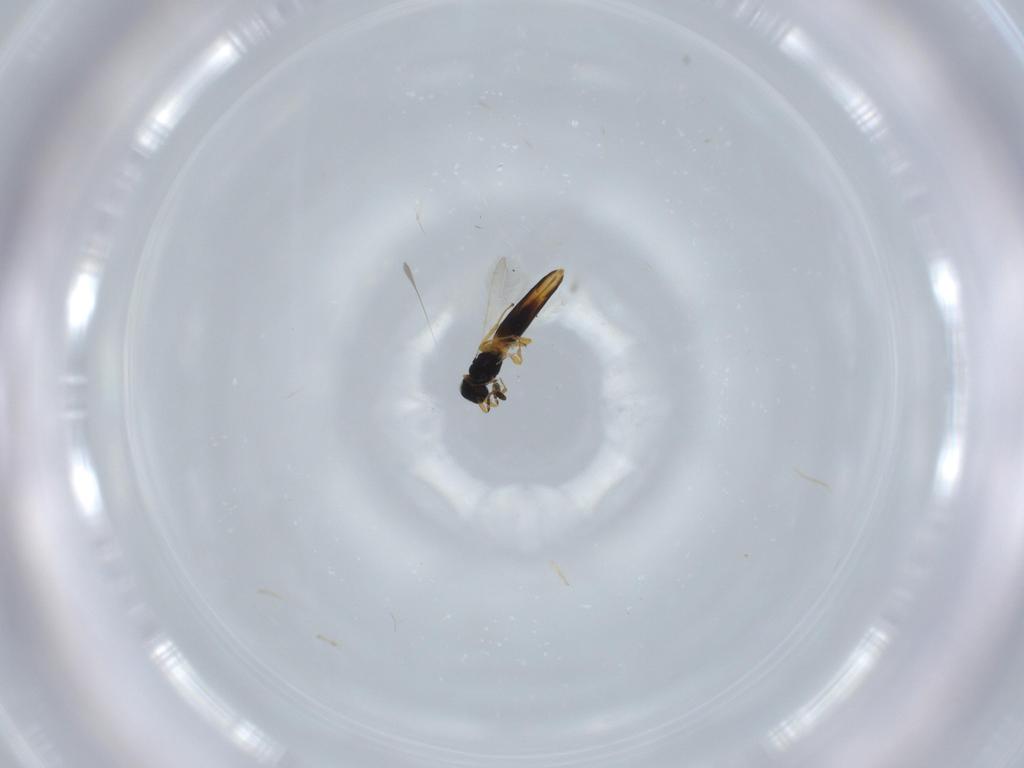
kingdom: Animalia
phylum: Arthropoda
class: Insecta
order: Hymenoptera
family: Scelionidae
